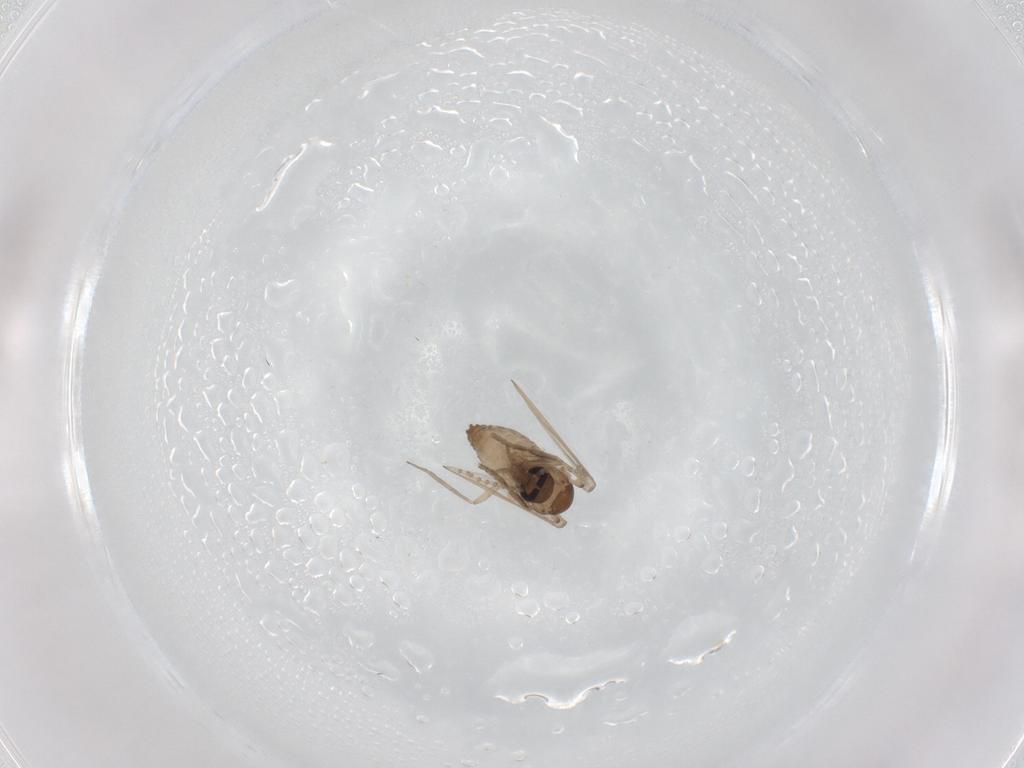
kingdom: Animalia
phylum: Arthropoda
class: Insecta
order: Diptera
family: Psychodidae
